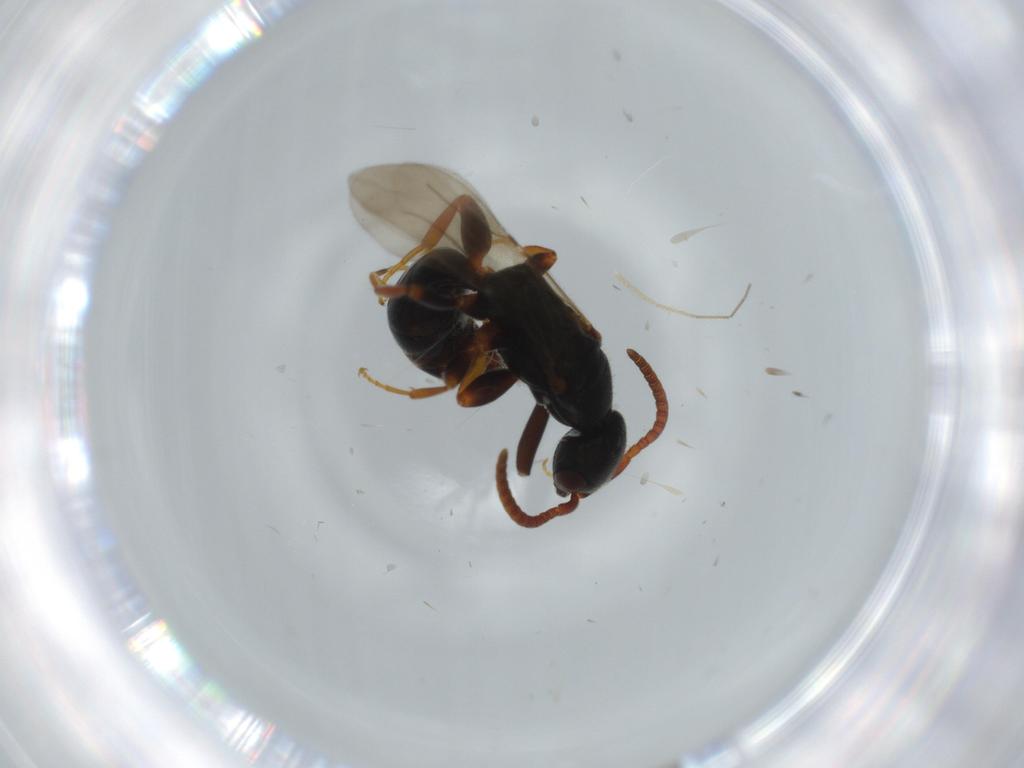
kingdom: Animalia
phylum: Arthropoda
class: Insecta
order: Hymenoptera
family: Formicidae
